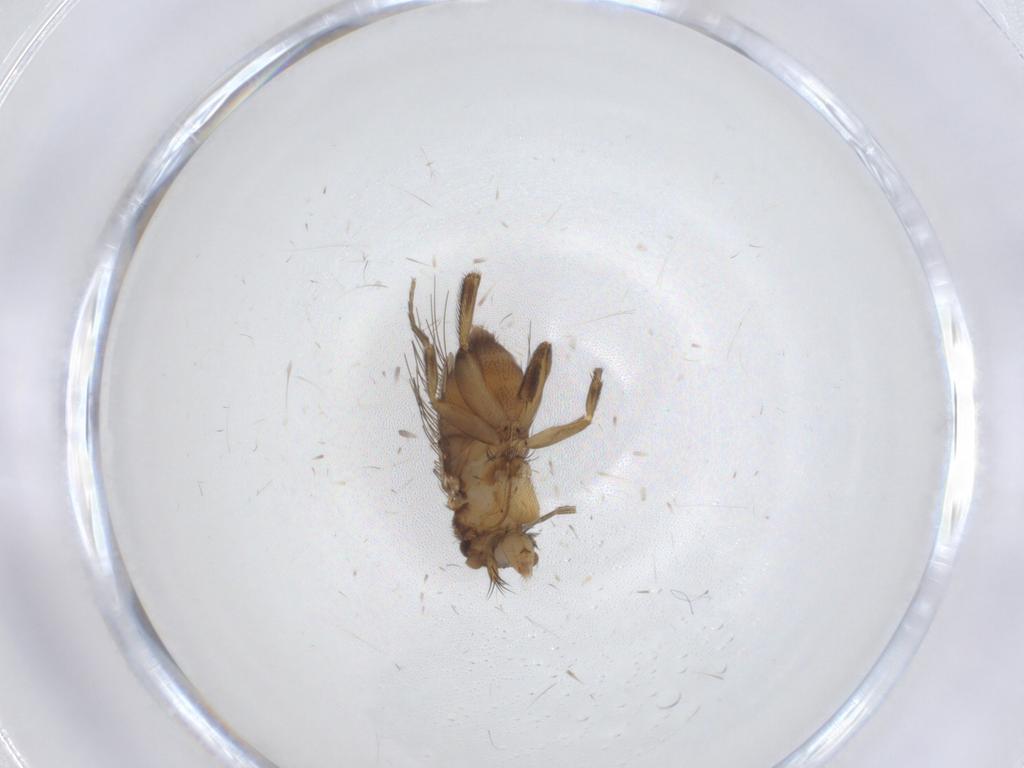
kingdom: Animalia
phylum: Arthropoda
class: Insecta
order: Diptera
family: Phoridae
